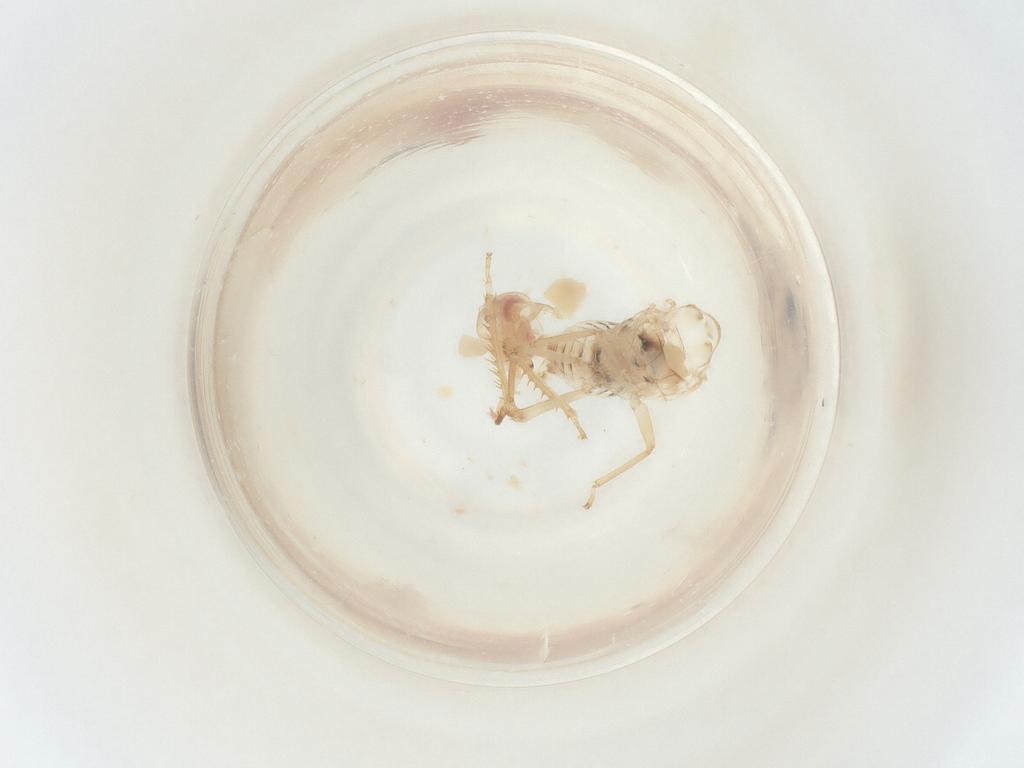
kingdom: Animalia
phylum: Arthropoda
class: Insecta
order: Hemiptera
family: Cicadellidae
